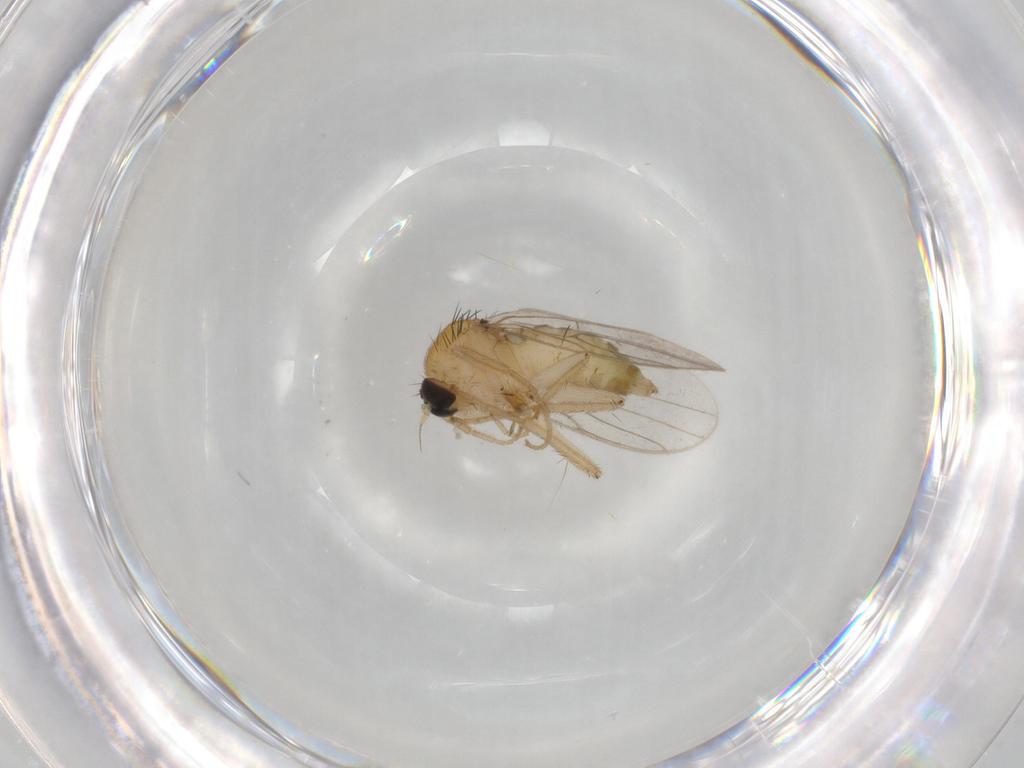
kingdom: Animalia
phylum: Arthropoda
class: Insecta
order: Diptera
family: Hybotidae
